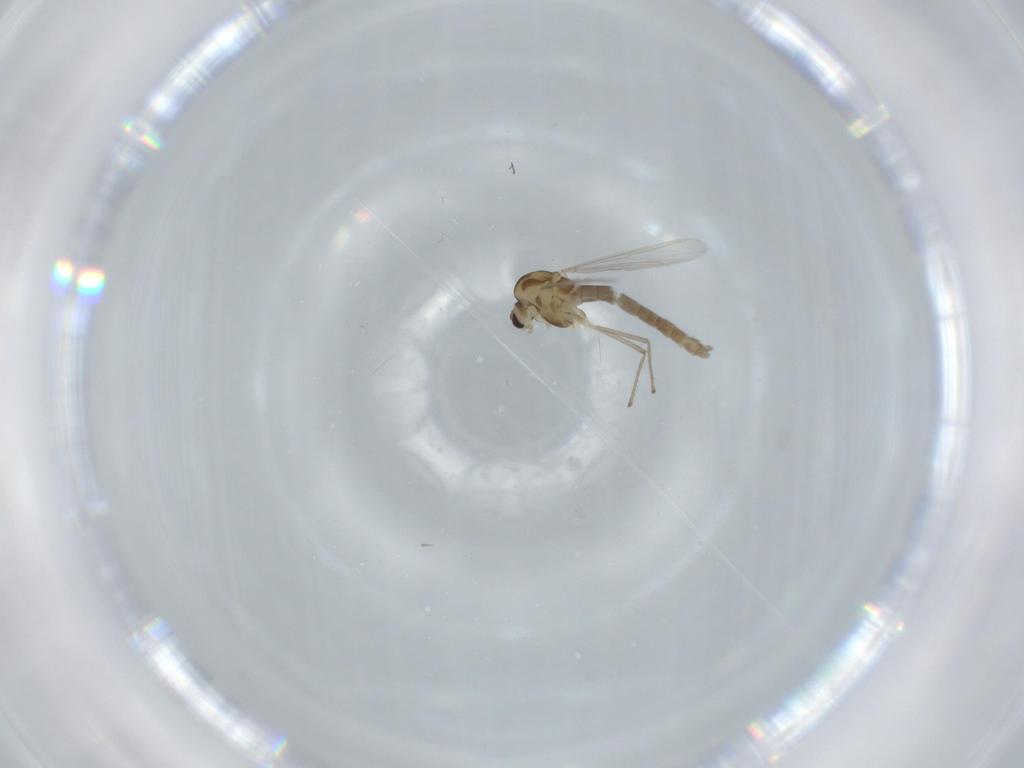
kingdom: Animalia
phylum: Arthropoda
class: Insecta
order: Diptera
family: Chironomidae
